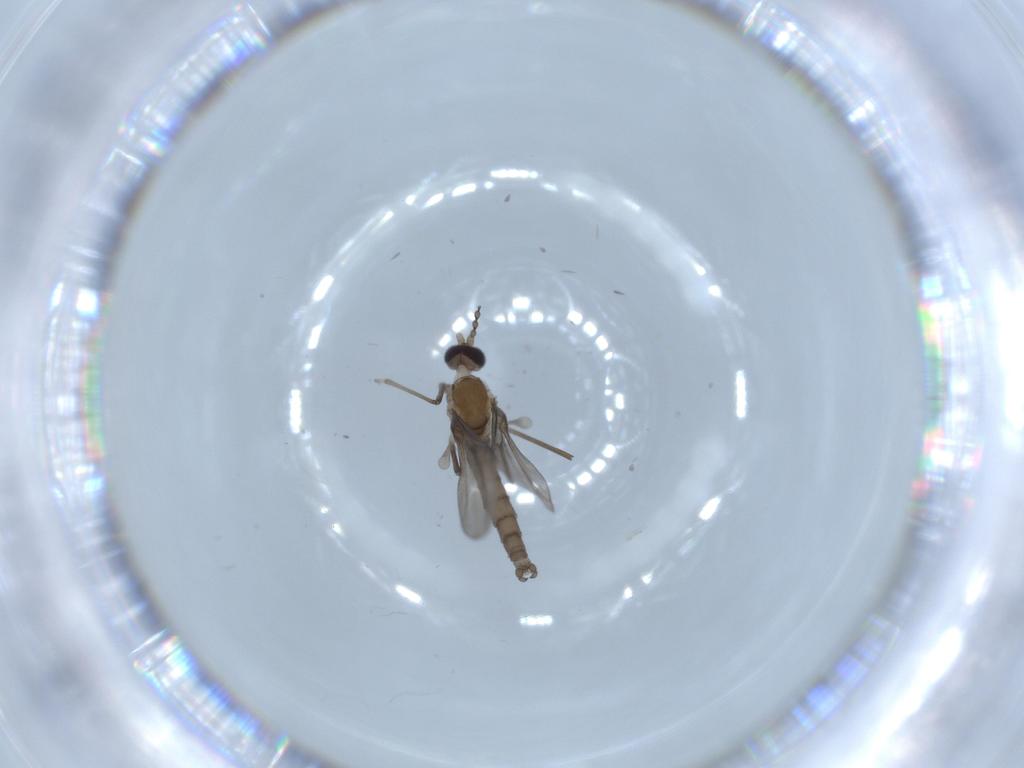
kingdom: Animalia
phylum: Arthropoda
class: Insecta
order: Diptera
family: Cecidomyiidae
